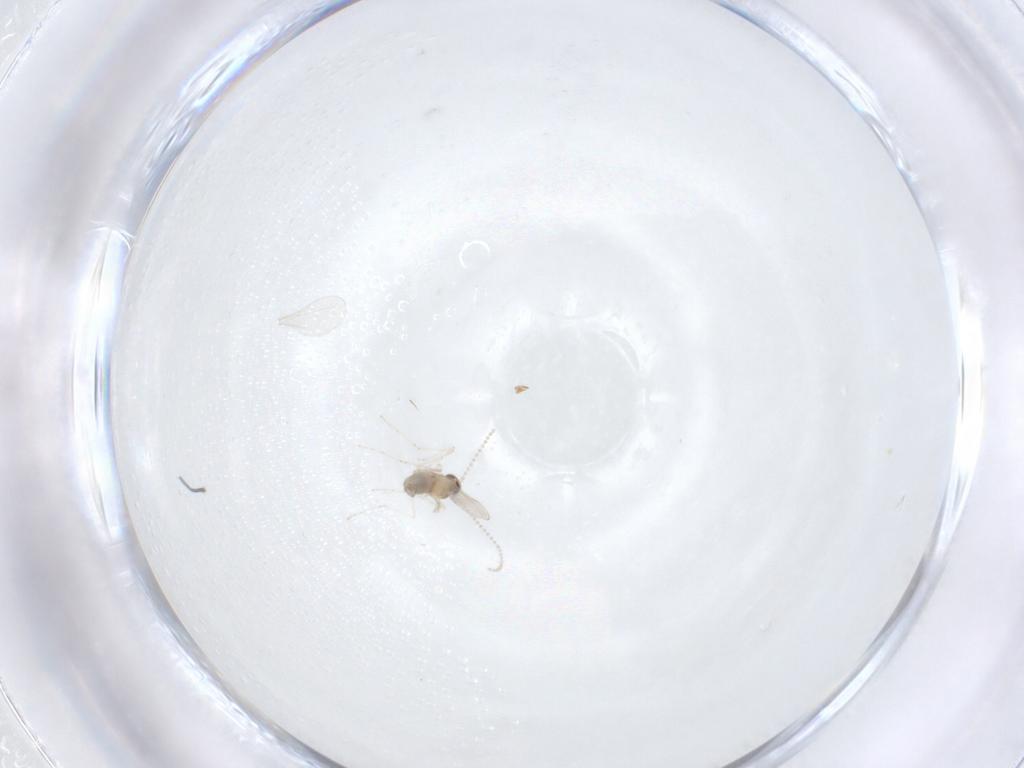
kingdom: Animalia
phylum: Arthropoda
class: Insecta
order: Diptera
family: Cecidomyiidae
